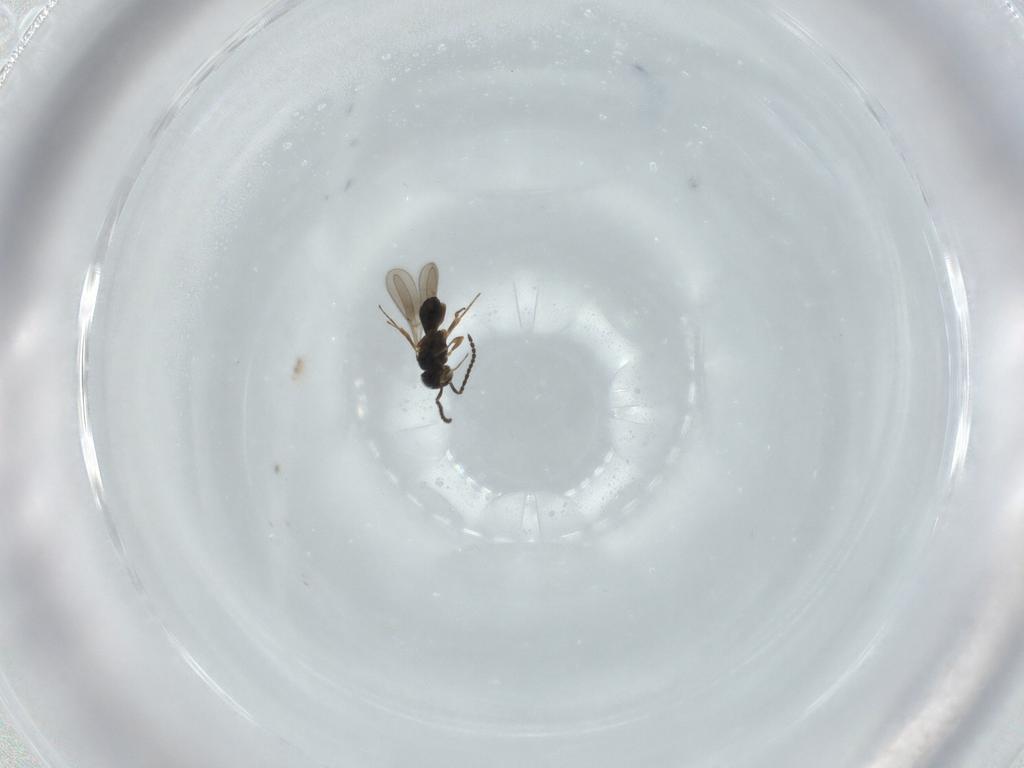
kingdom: Animalia
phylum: Arthropoda
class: Insecta
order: Hymenoptera
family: Scelionidae
